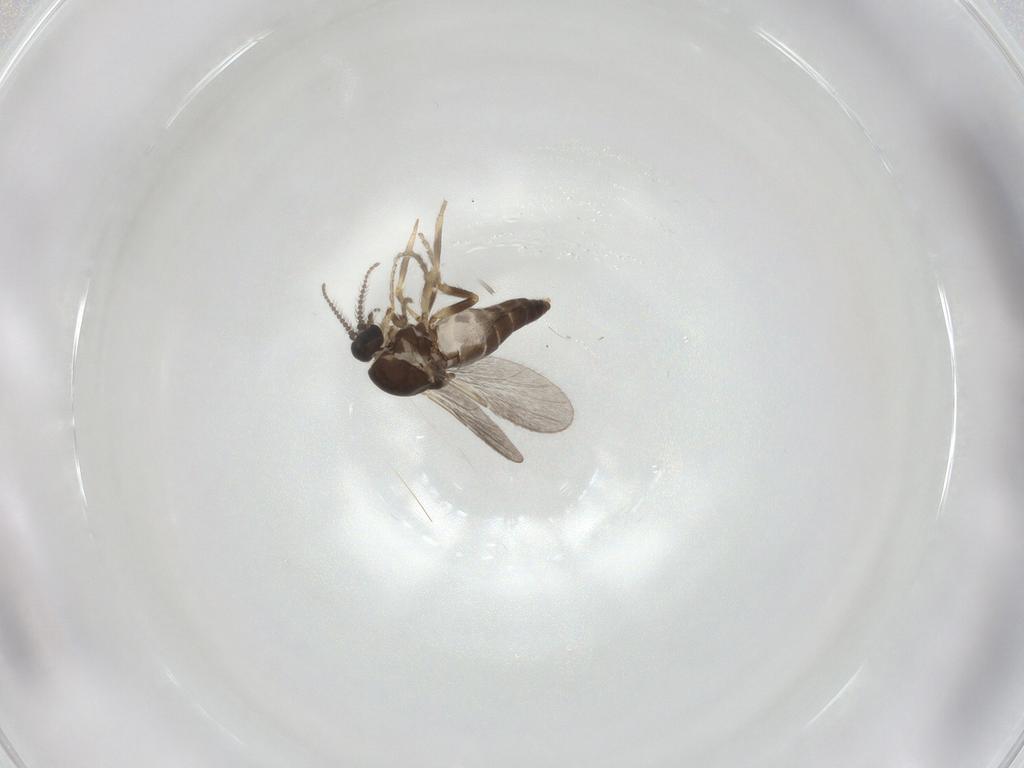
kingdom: Animalia
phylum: Arthropoda
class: Insecta
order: Diptera
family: Ceratopogonidae
